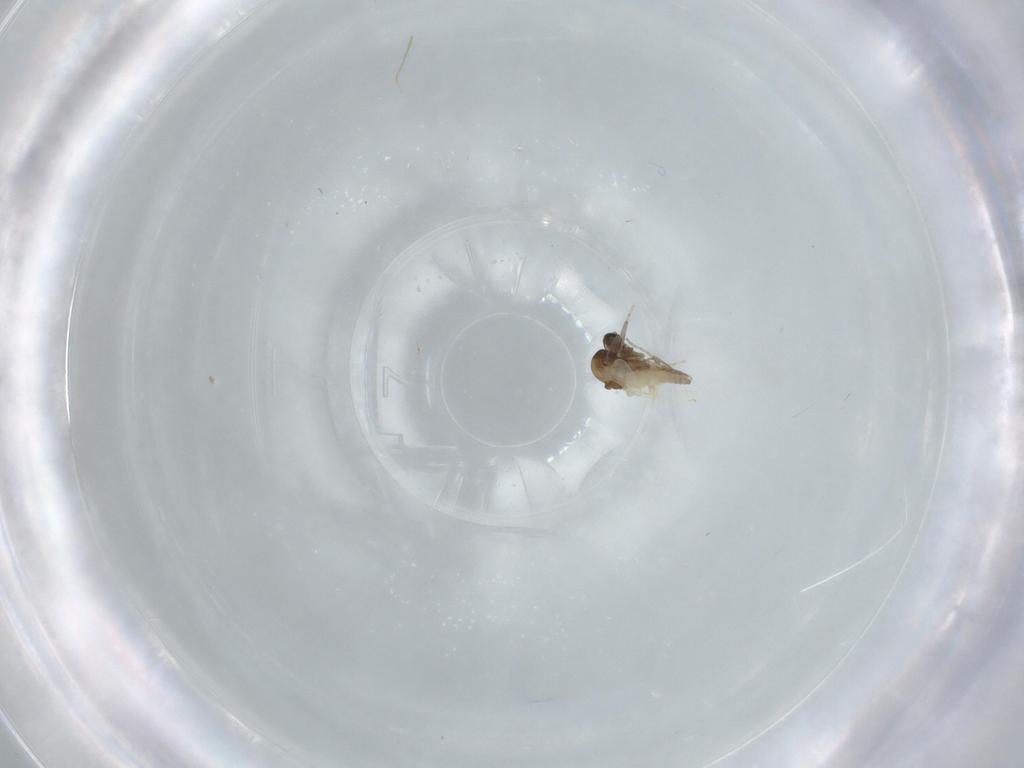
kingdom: Animalia
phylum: Arthropoda
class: Insecta
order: Diptera
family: Ceratopogonidae
